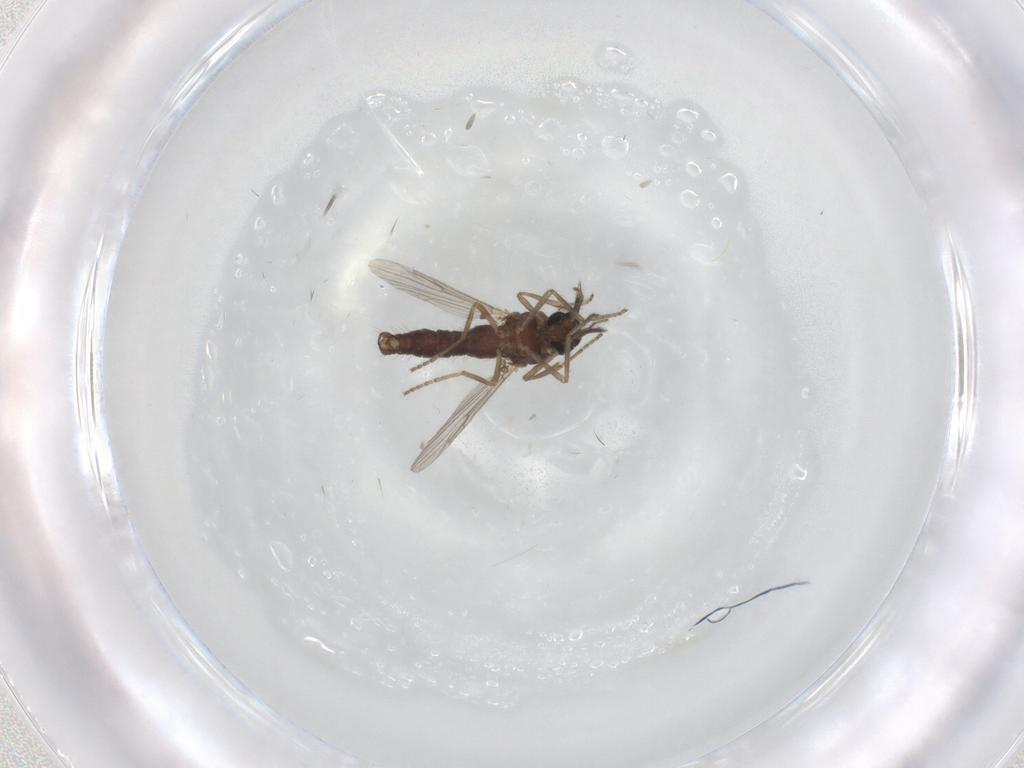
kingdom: Animalia
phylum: Arthropoda
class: Insecta
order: Diptera
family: Ceratopogonidae
